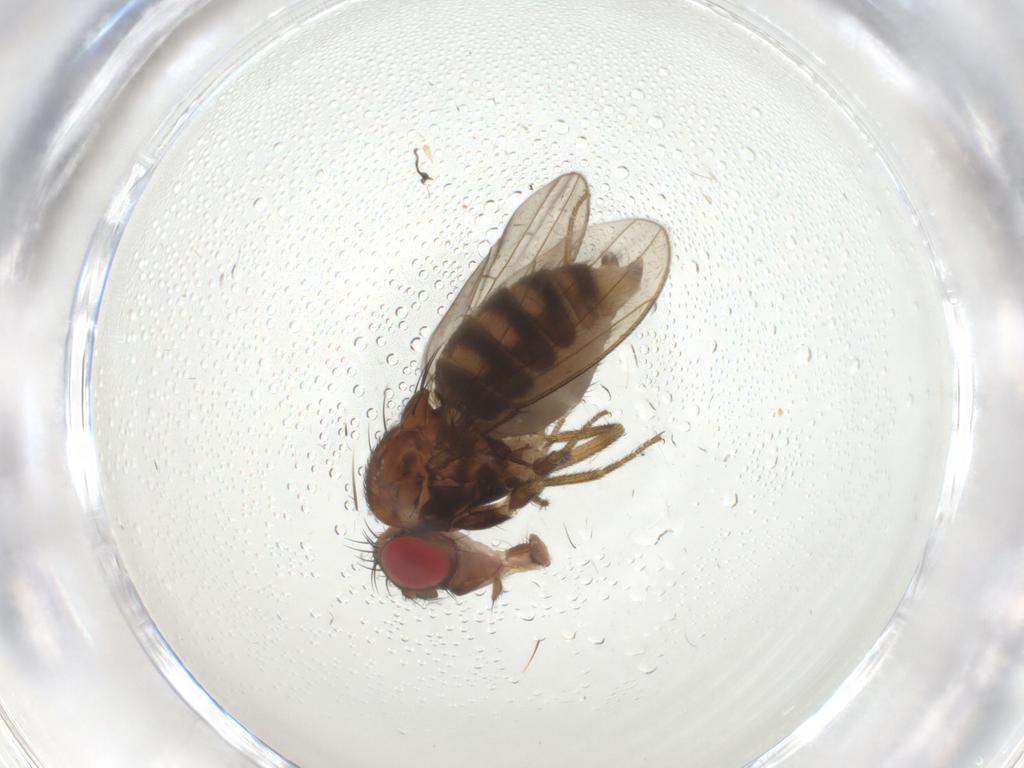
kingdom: Animalia
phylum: Arthropoda
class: Insecta
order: Diptera
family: Drosophilidae
